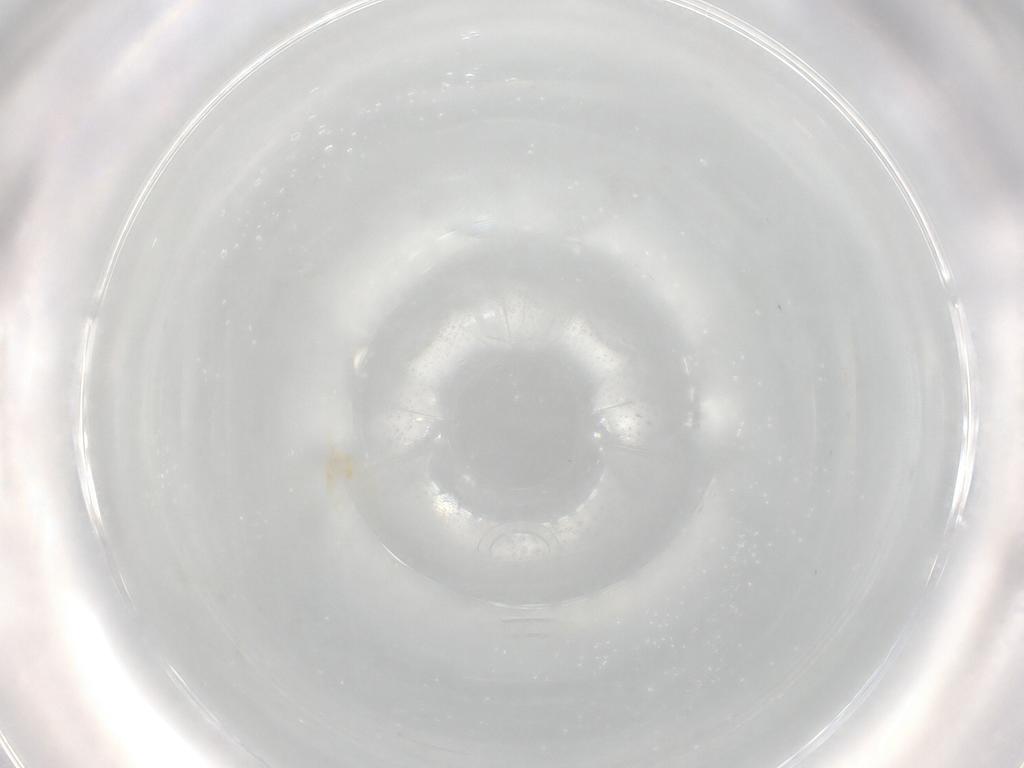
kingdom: Animalia
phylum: Arthropoda
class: Arachnida
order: Trombidiformes
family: Erythraeidae
